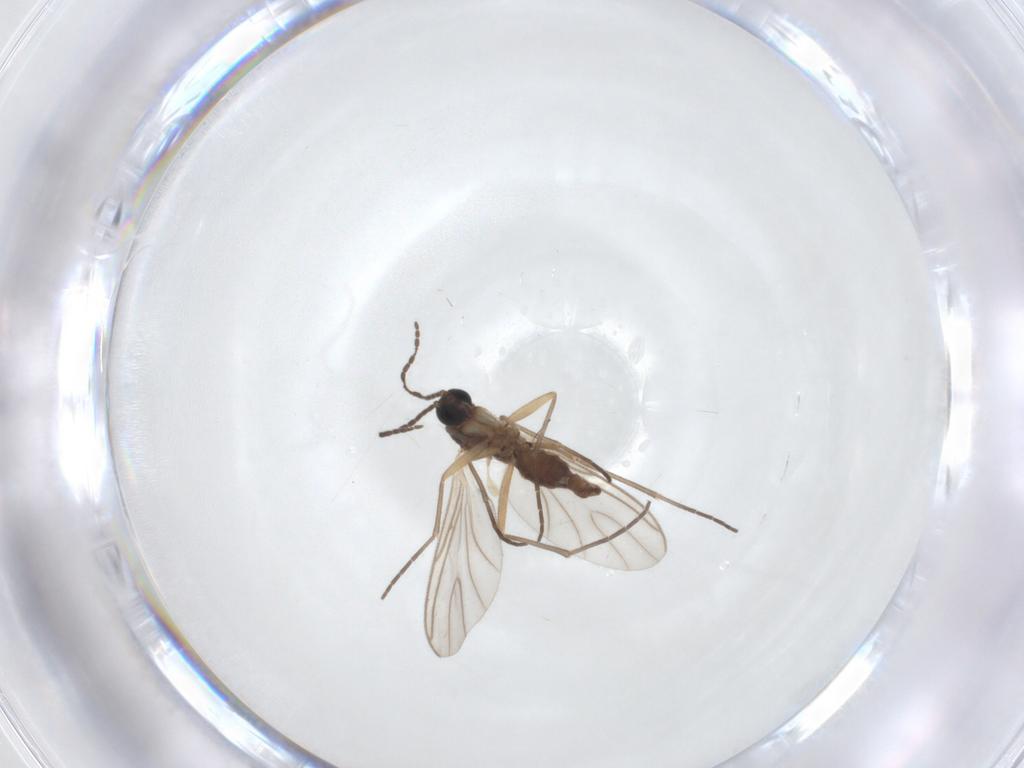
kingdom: Animalia
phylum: Arthropoda
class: Insecta
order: Diptera
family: Sciaridae
